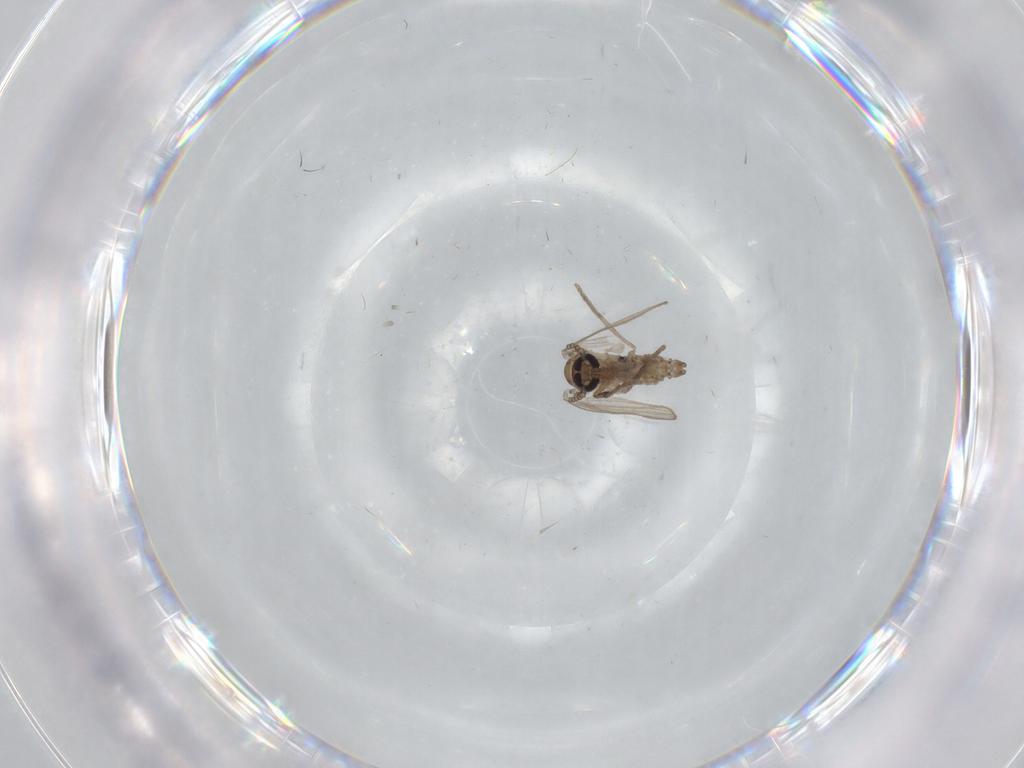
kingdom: Animalia
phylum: Arthropoda
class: Insecta
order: Diptera
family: Psychodidae
